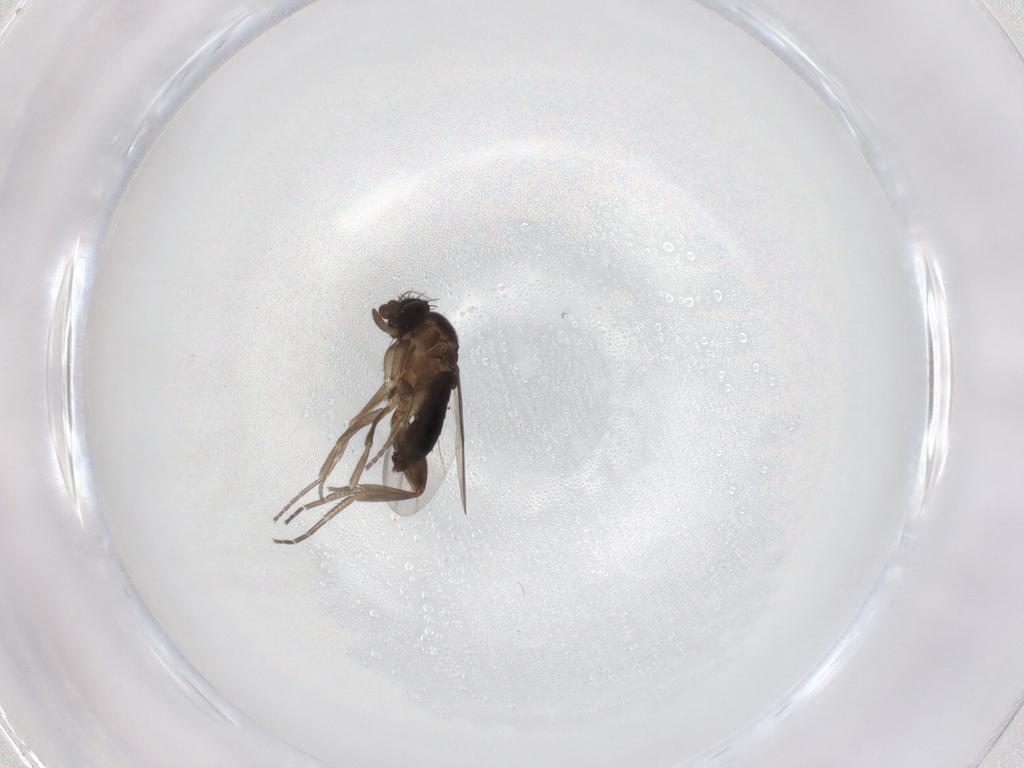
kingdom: Animalia
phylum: Arthropoda
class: Insecta
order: Diptera
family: Phoridae
